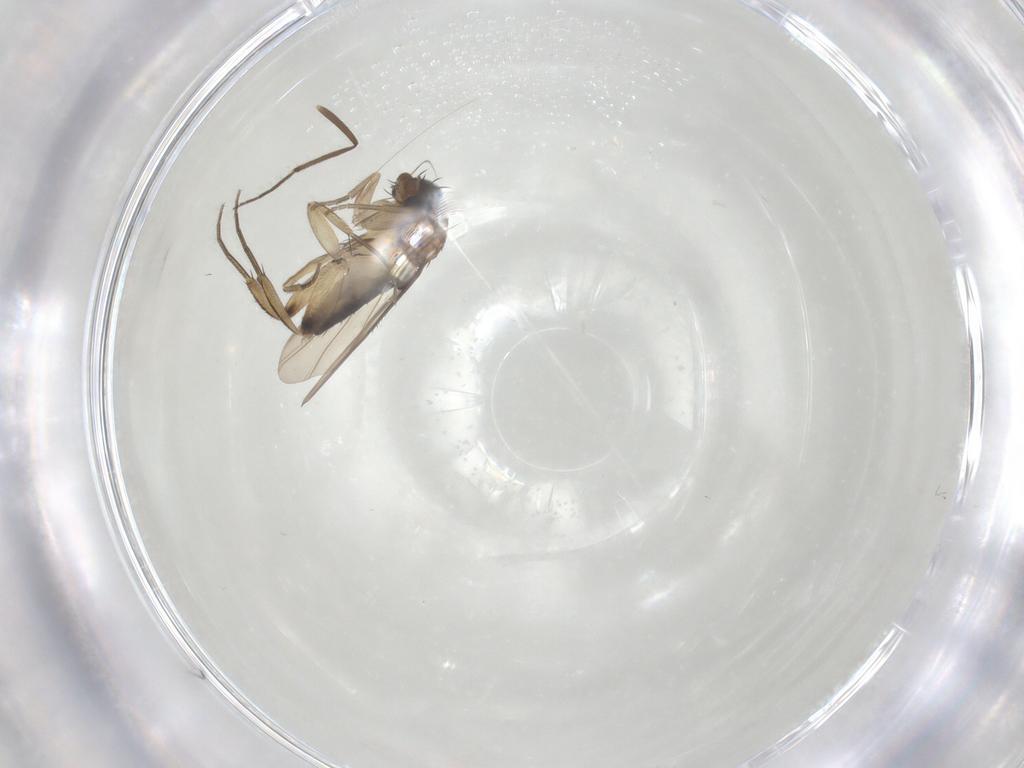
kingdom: Animalia
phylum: Arthropoda
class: Insecta
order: Diptera
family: Phoridae
